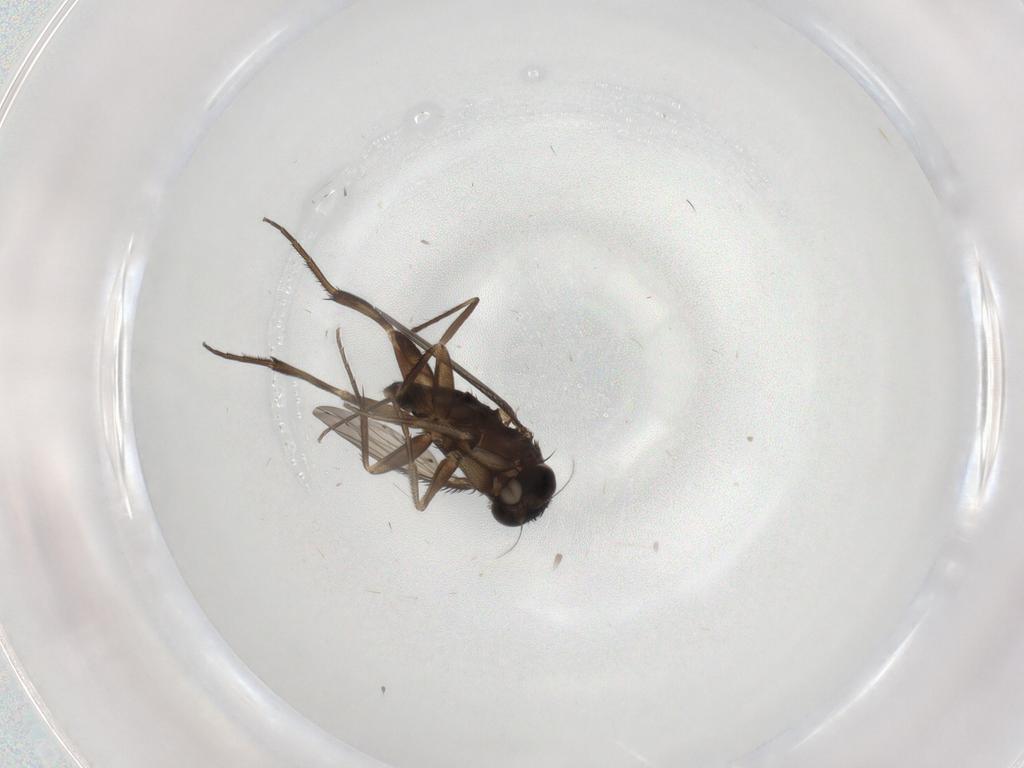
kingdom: Animalia
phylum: Arthropoda
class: Insecta
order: Diptera
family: Phoridae
